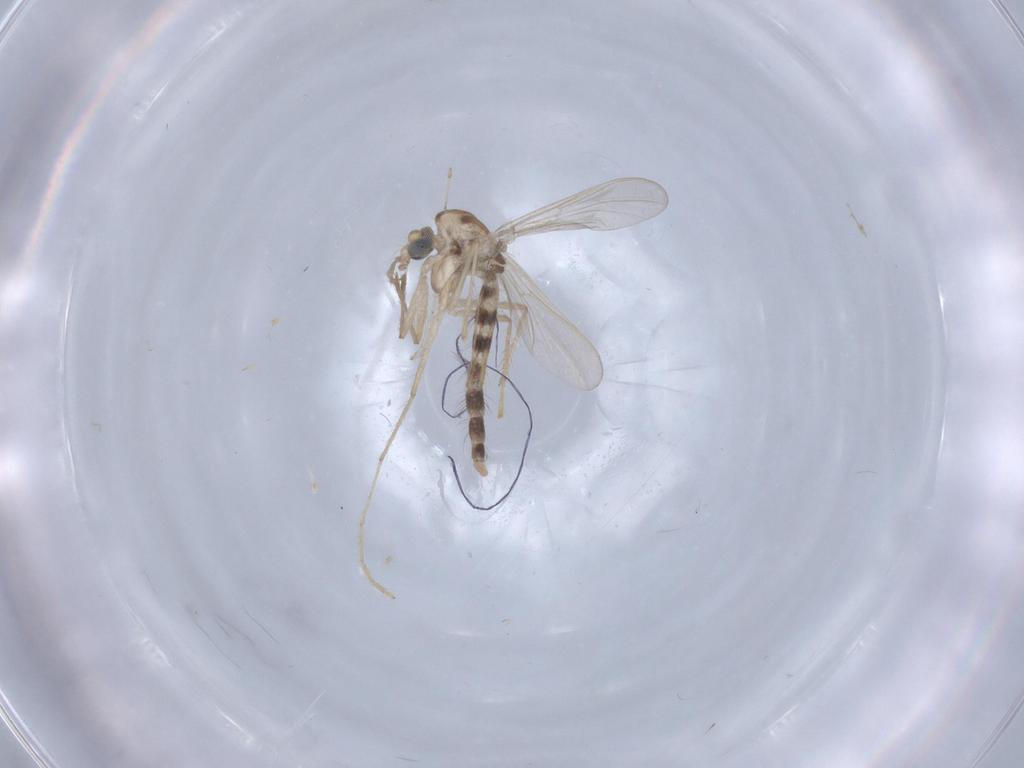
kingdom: Animalia
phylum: Arthropoda
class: Insecta
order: Diptera
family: Chironomidae
